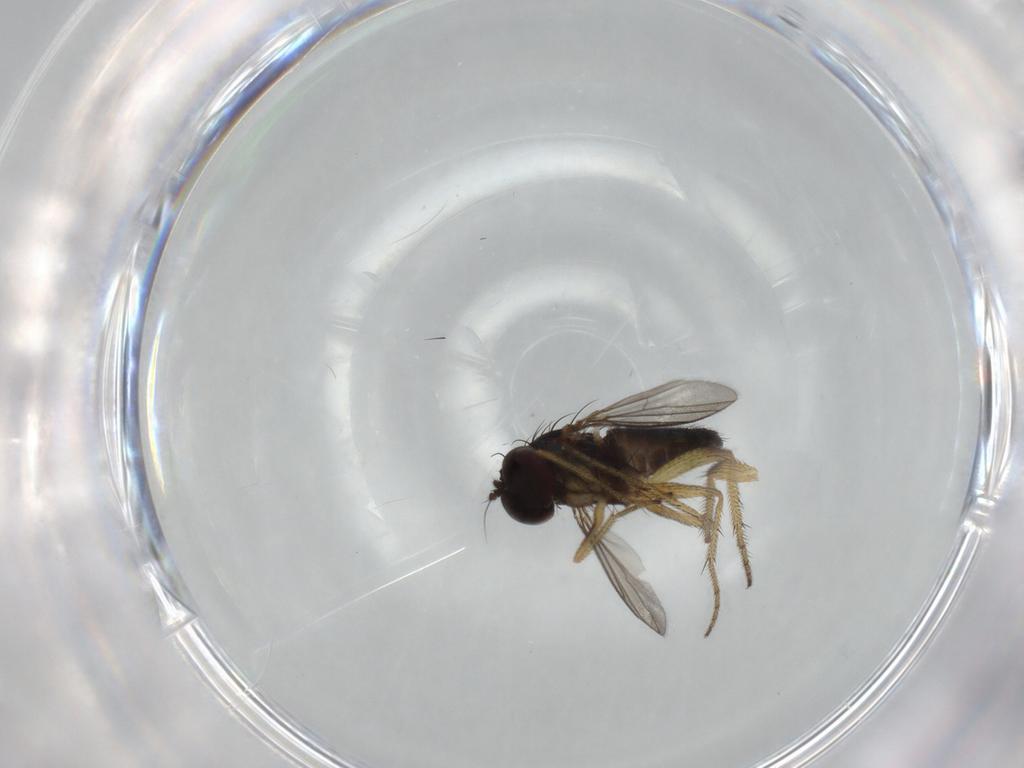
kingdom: Animalia
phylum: Arthropoda
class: Insecta
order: Diptera
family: Dolichopodidae
